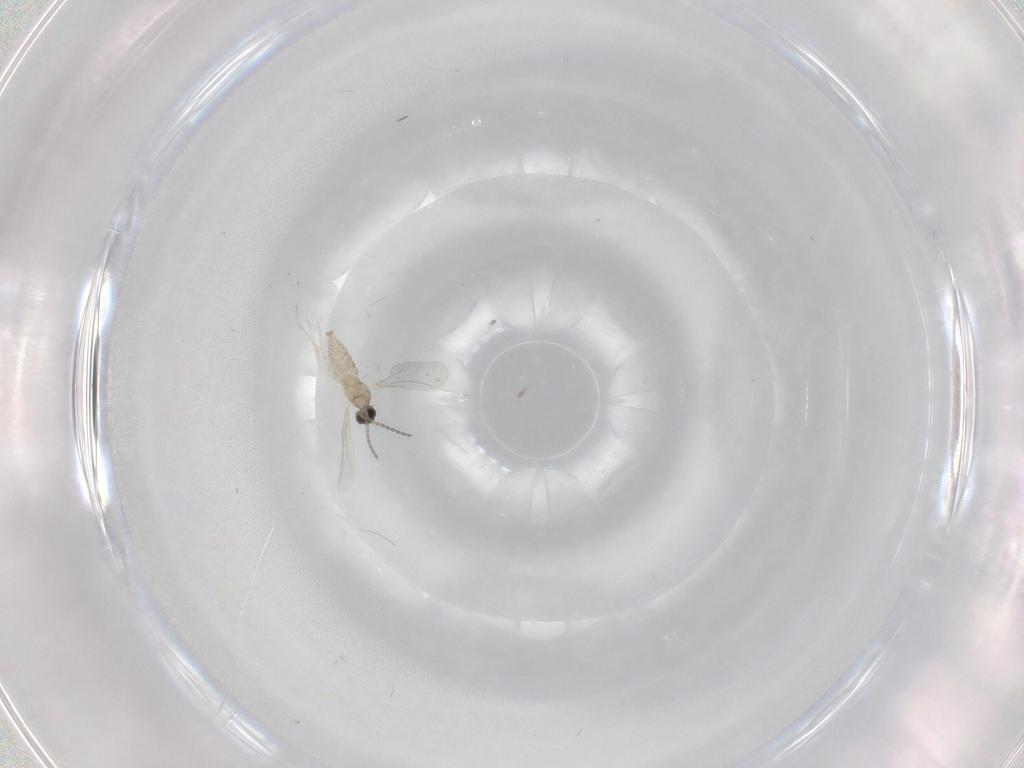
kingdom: Animalia
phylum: Arthropoda
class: Insecta
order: Diptera
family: Cecidomyiidae
